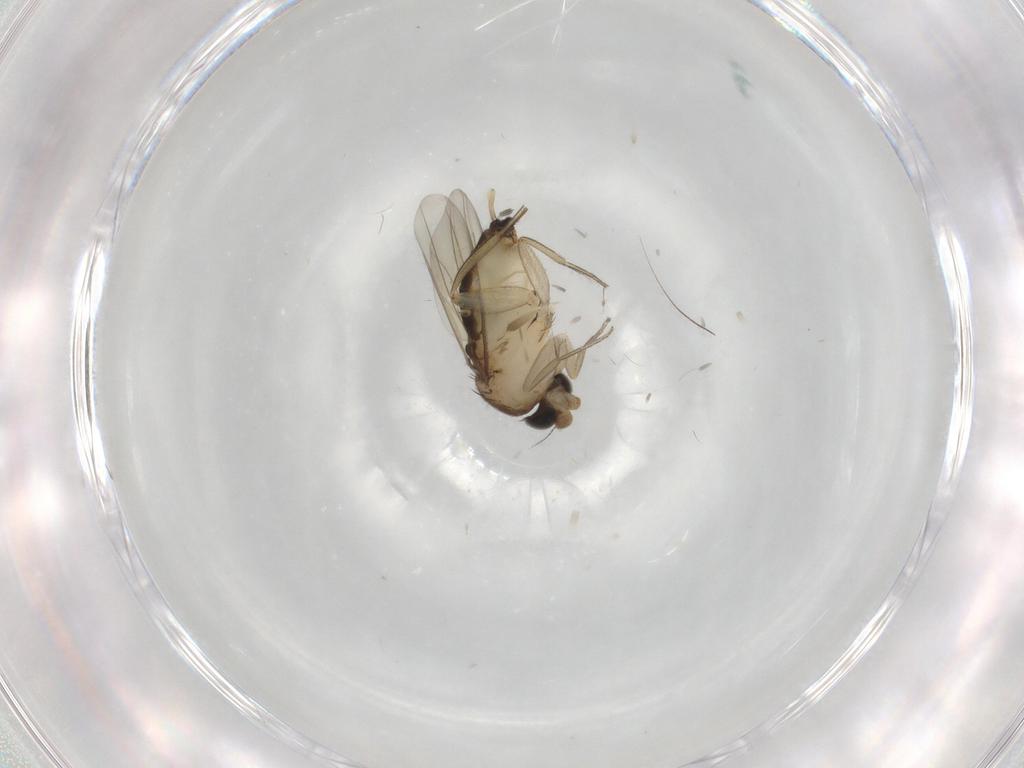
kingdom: Animalia
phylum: Arthropoda
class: Insecta
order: Diptera
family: Phoridae
